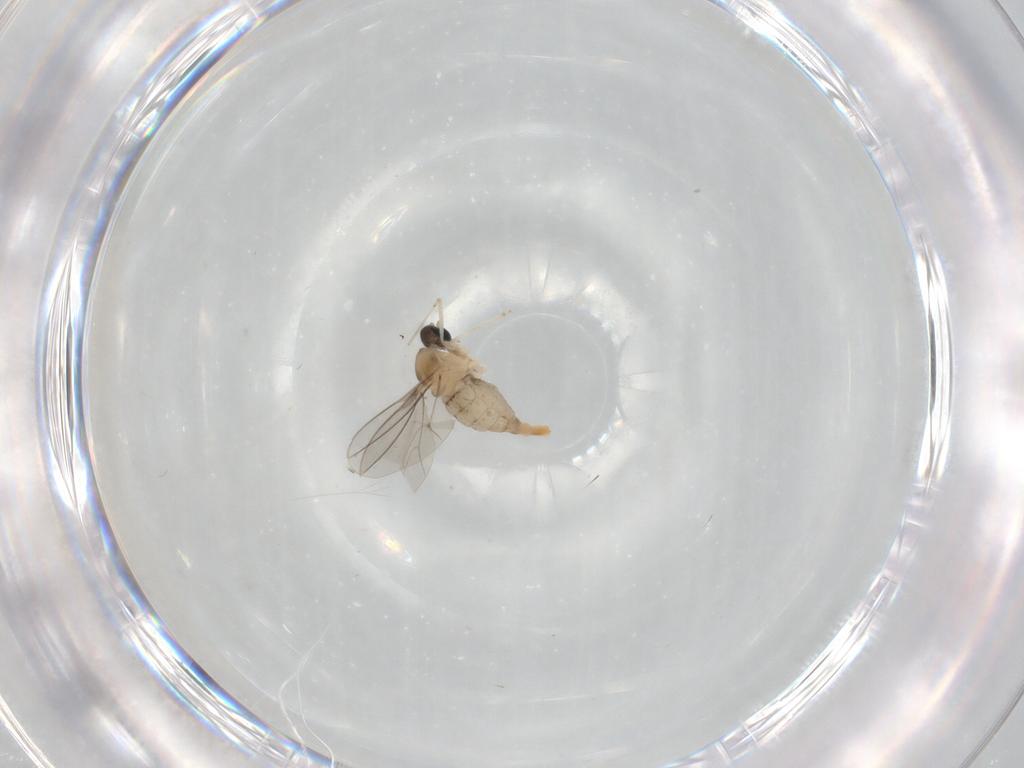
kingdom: Animalia
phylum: Arthropoda
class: Insecta
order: Diptera
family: Cecidomyiidae
